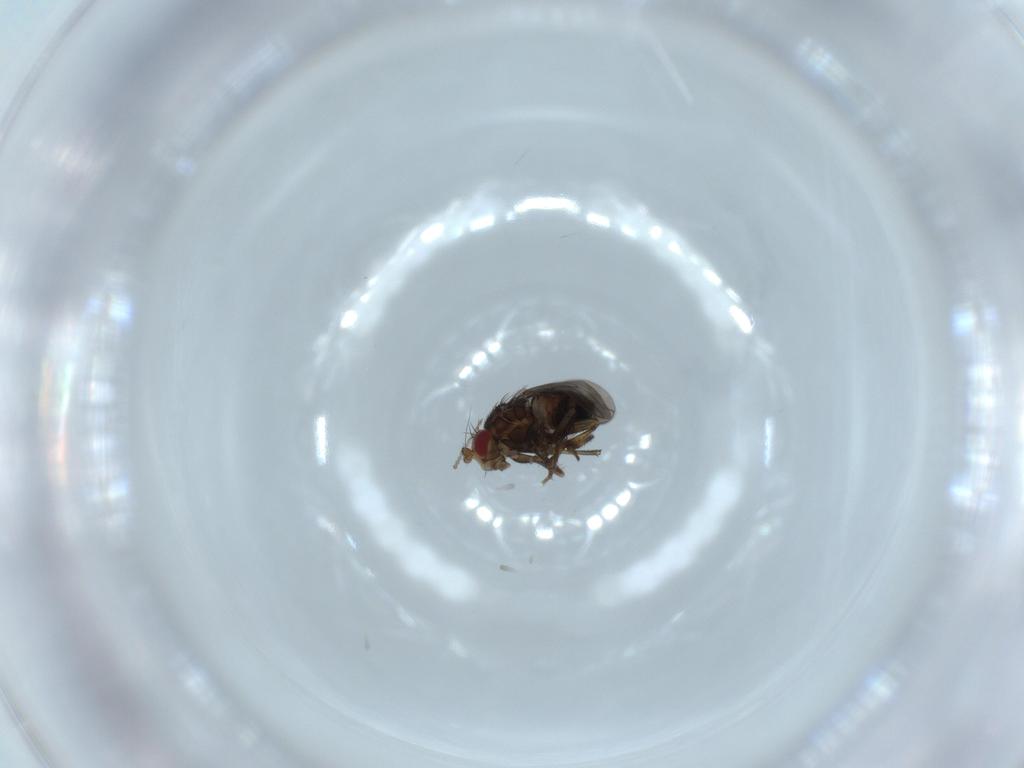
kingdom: Animalia
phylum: Arthropoda
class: Insecta
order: Diptera
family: Sciaridae
